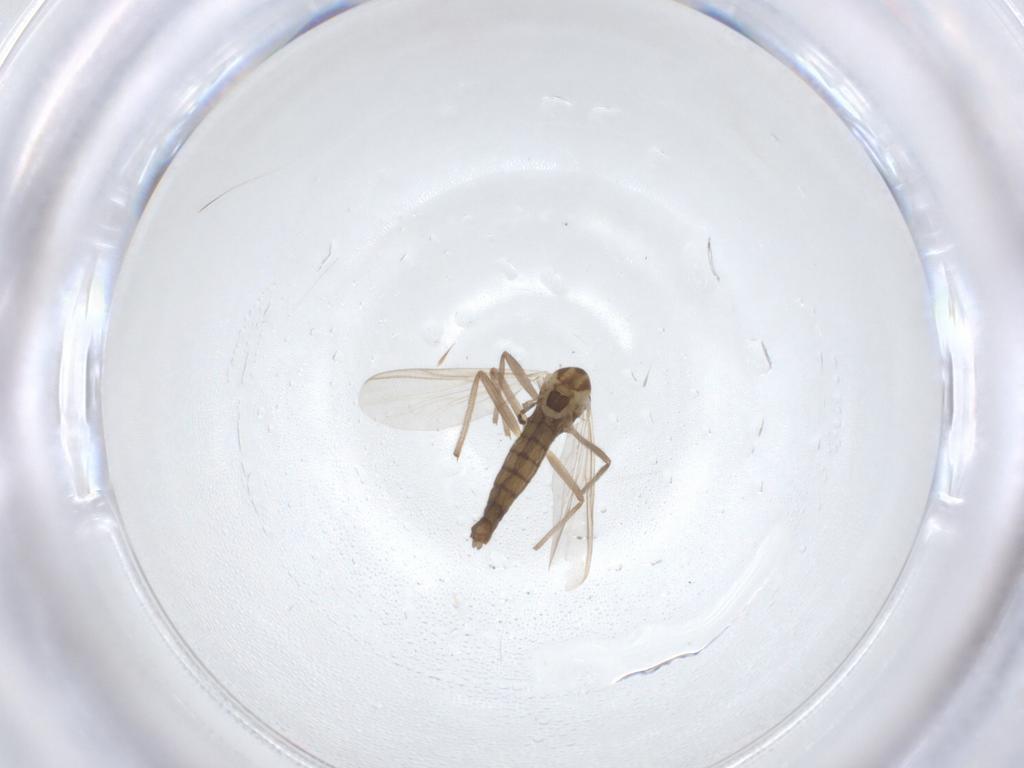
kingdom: Animalia
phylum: Arthropoda
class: Insecta
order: Diptera
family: Chironomidae
